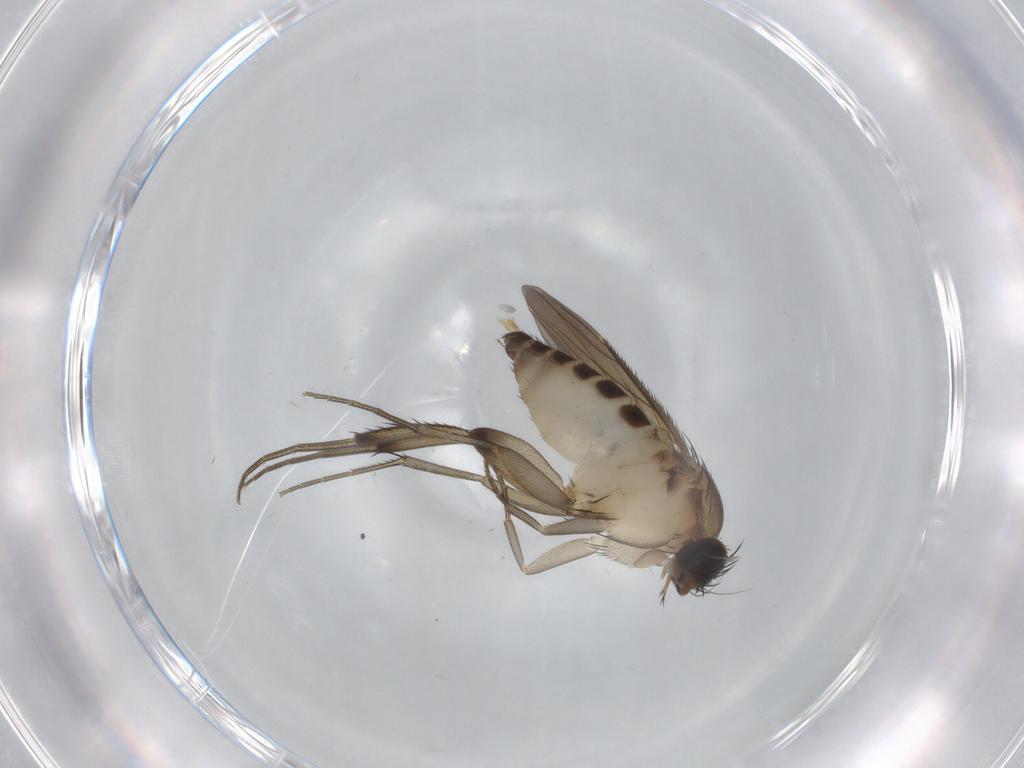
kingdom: Animalia
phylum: Arthropoda
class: Insecta
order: Diptera
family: Phoridae
